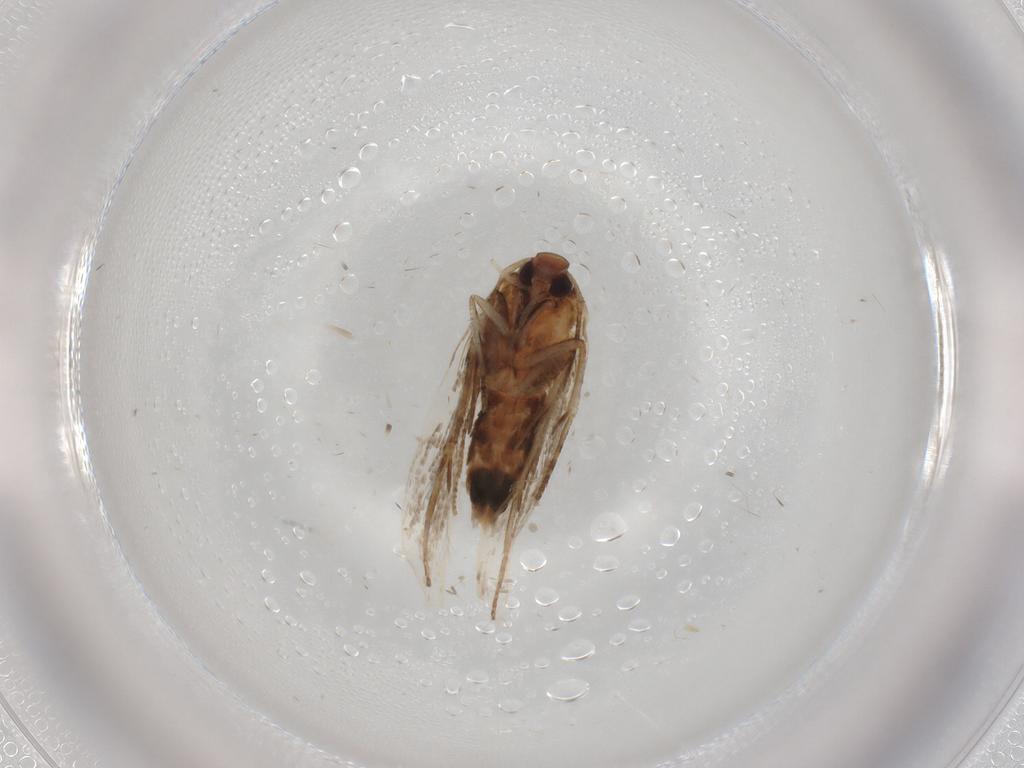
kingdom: Animalia
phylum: Arthropoda
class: Insecta
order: Lepidoptera
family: Cosmopterigidae
